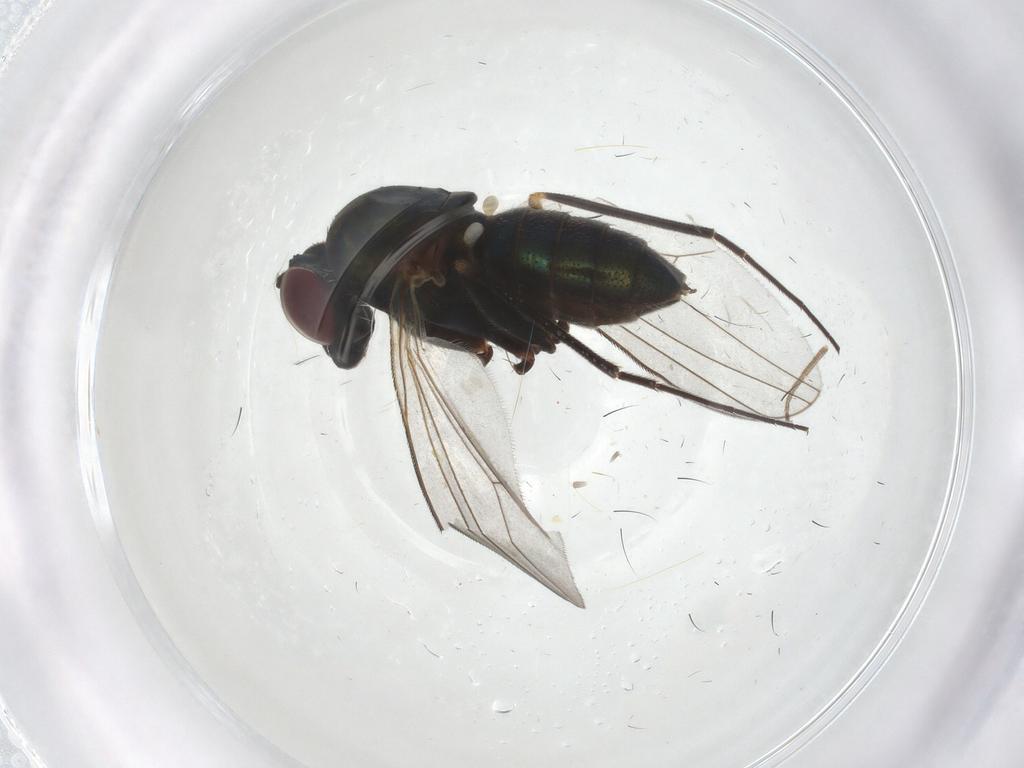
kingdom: Animalia
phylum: Arthropoda
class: Insecta
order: Diptera
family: Dolichopodidae
